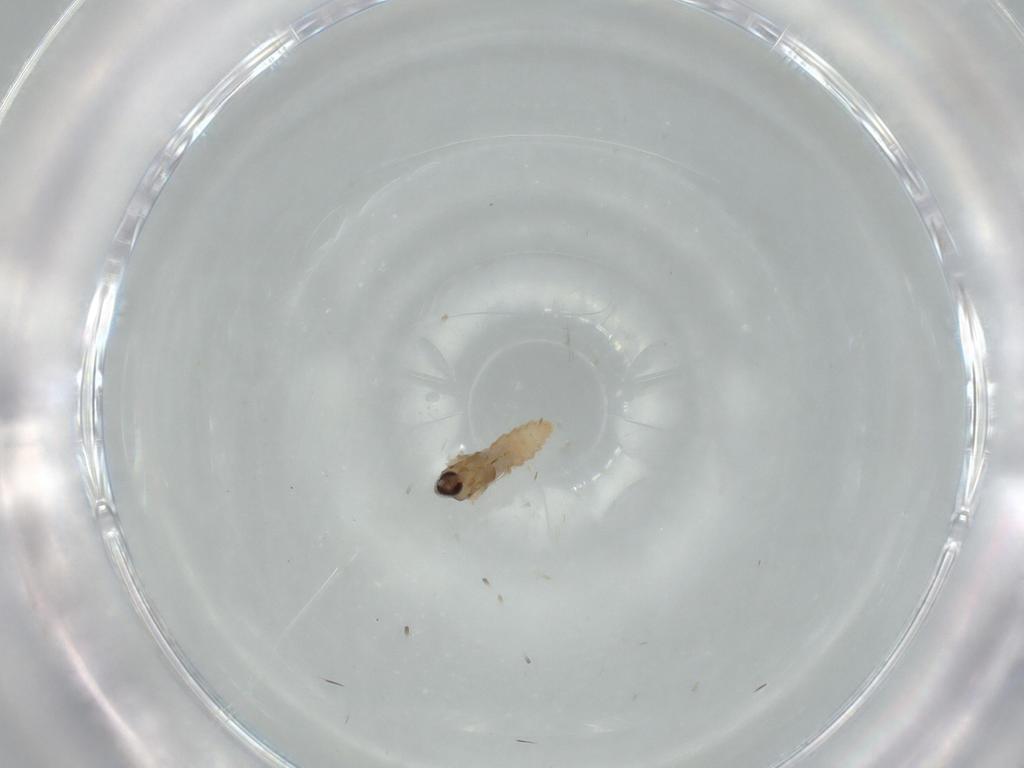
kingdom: Animalia
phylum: Arthropoda
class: Insecta
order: Diptera
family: Cecidomyiidae
